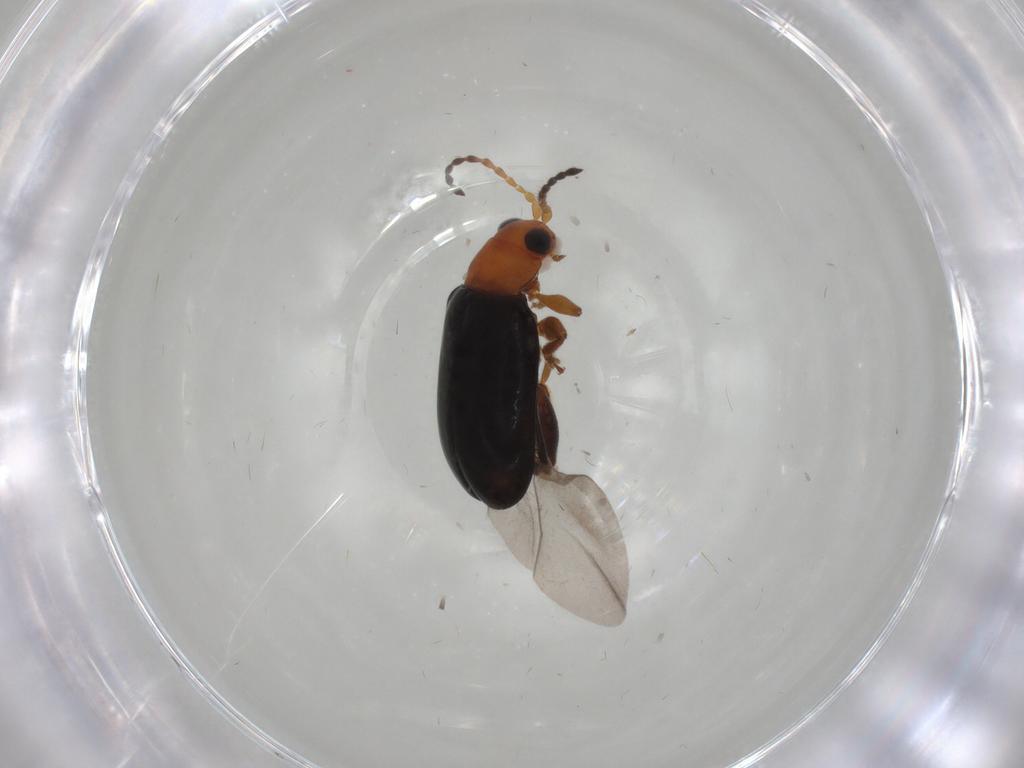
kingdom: Animalia
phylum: Arthropoda
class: Insecta
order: Coleoptera
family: Chrysomelidae
